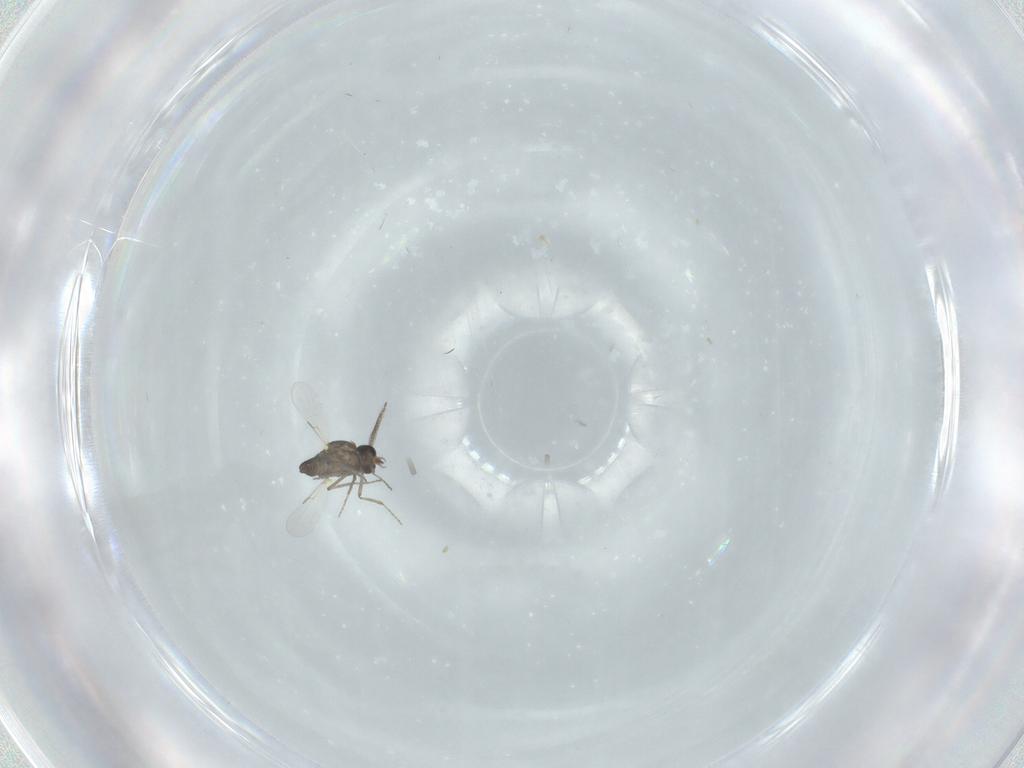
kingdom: Animalia
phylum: Arthropoda
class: Insecta
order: Diptera
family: Ceratopogonidae
